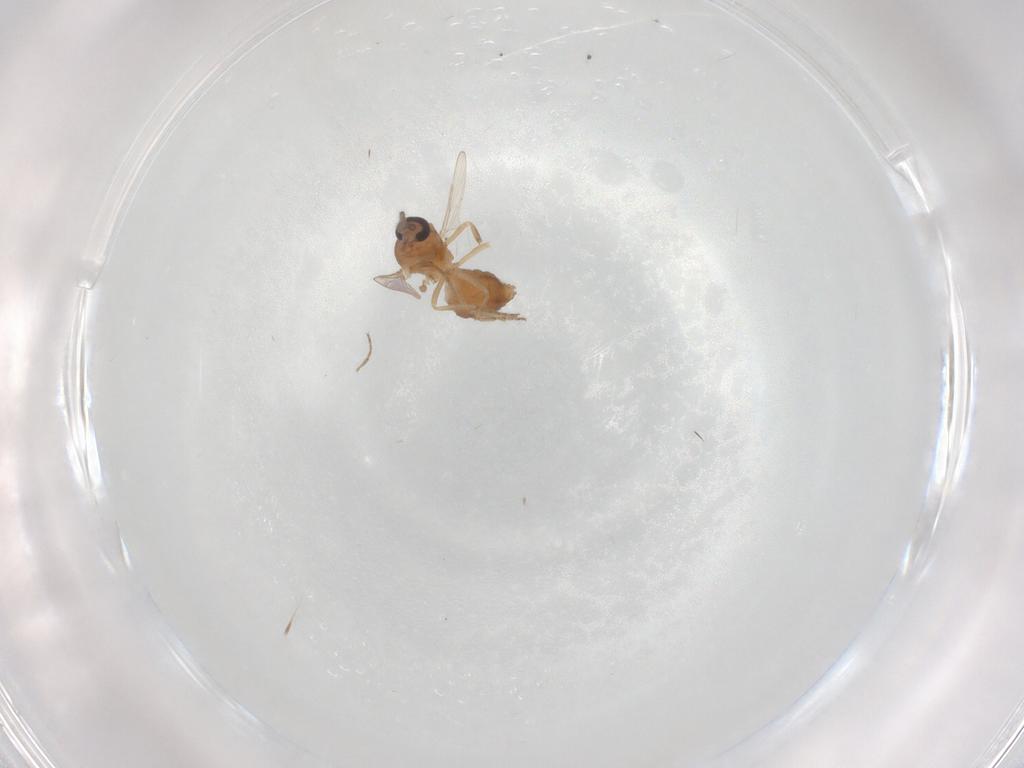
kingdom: Animalia
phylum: Arthropoda
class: Insecta
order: Diptera
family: Ceratopogonidae
